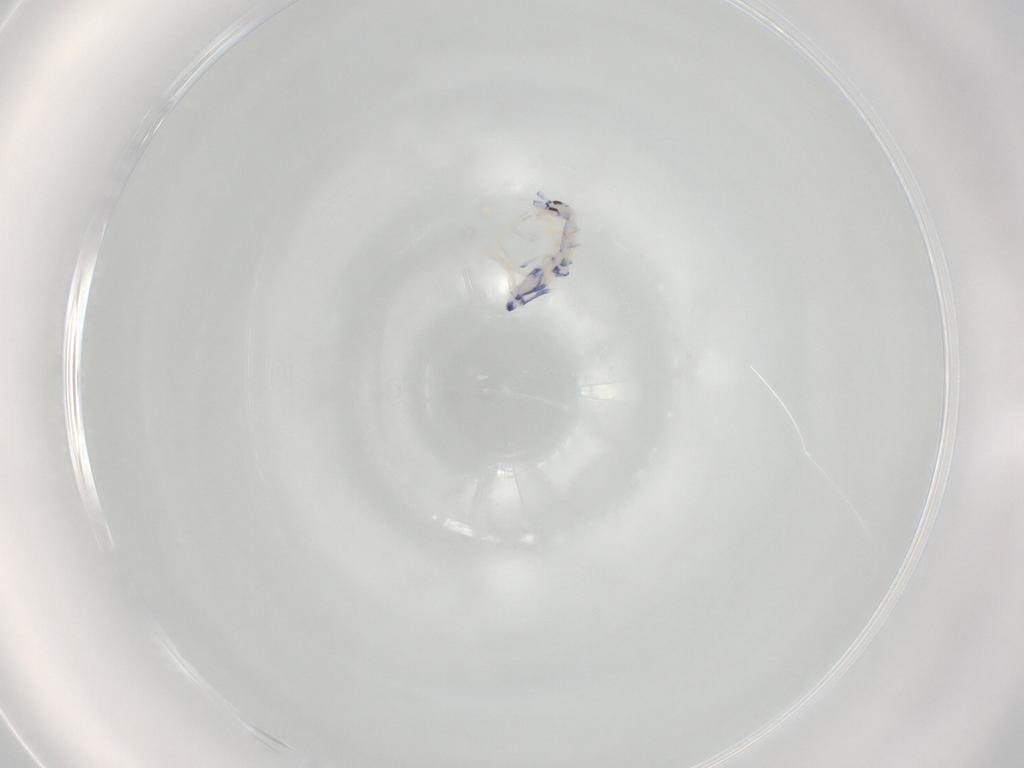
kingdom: Animalia
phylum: Arthropoda
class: Collembola
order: Entomobryomorpha
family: Entomobryidae
